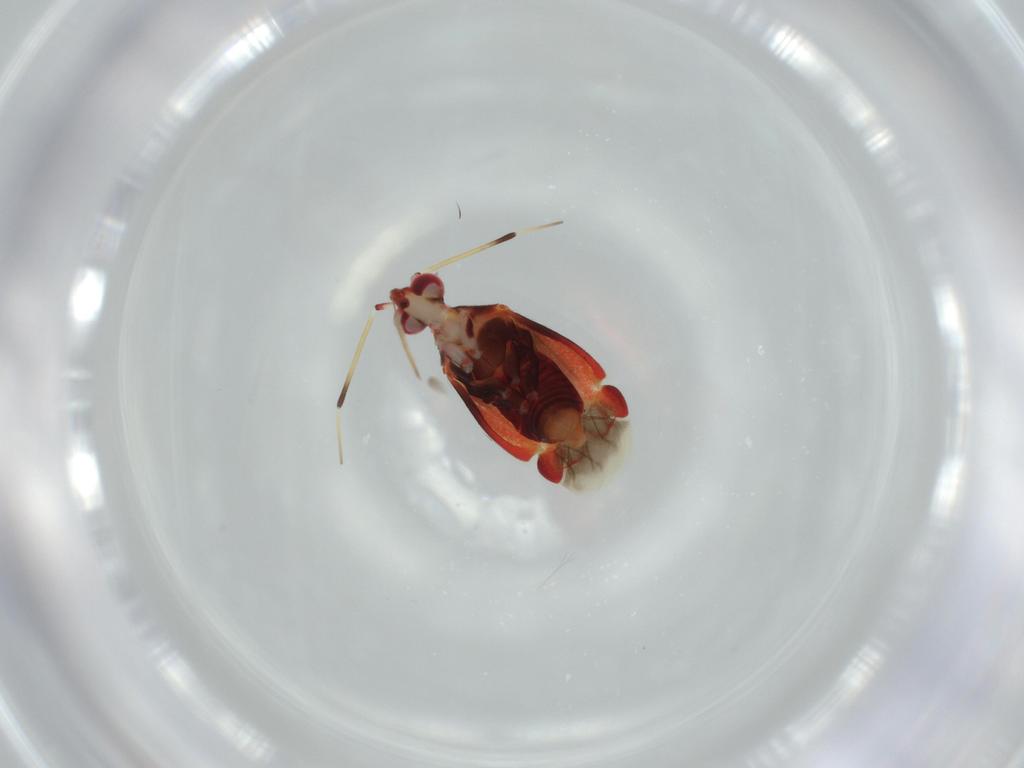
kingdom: Animalia
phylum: Arthropoda
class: Insecta
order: Hemiptera
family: Miridae
